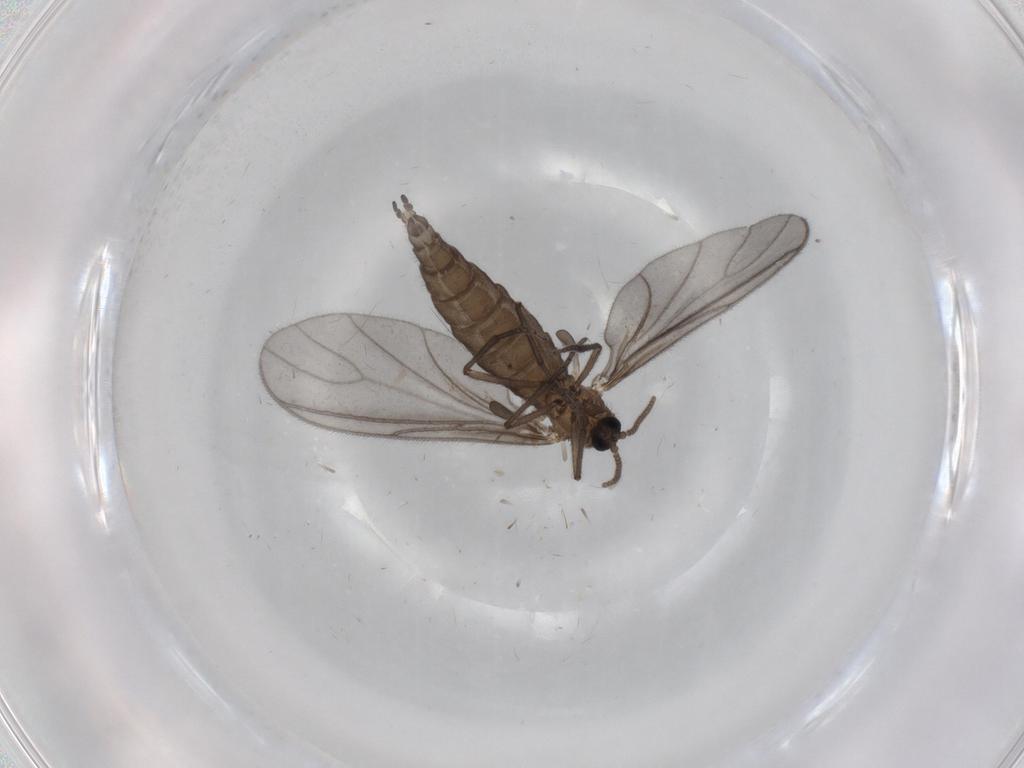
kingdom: Animalia
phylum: Arthropoda
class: Insecta
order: Diptera
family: Sciaridae
